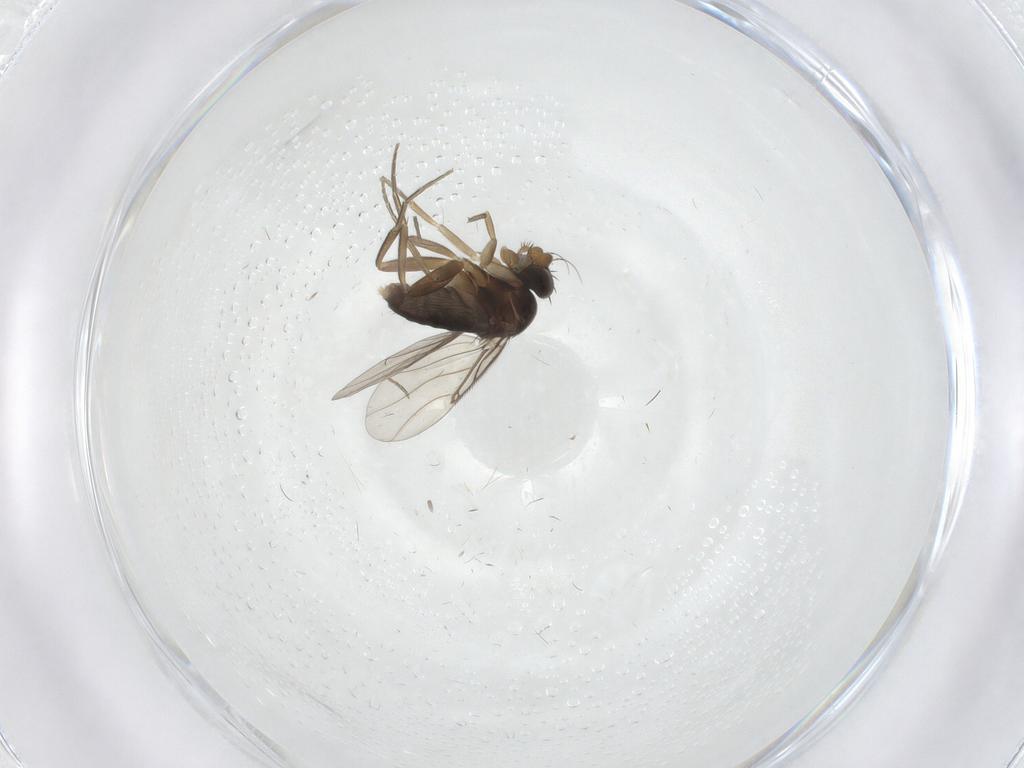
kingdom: Animalia
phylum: Arthropoda
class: Insecta
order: Diptera
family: Phoridae
